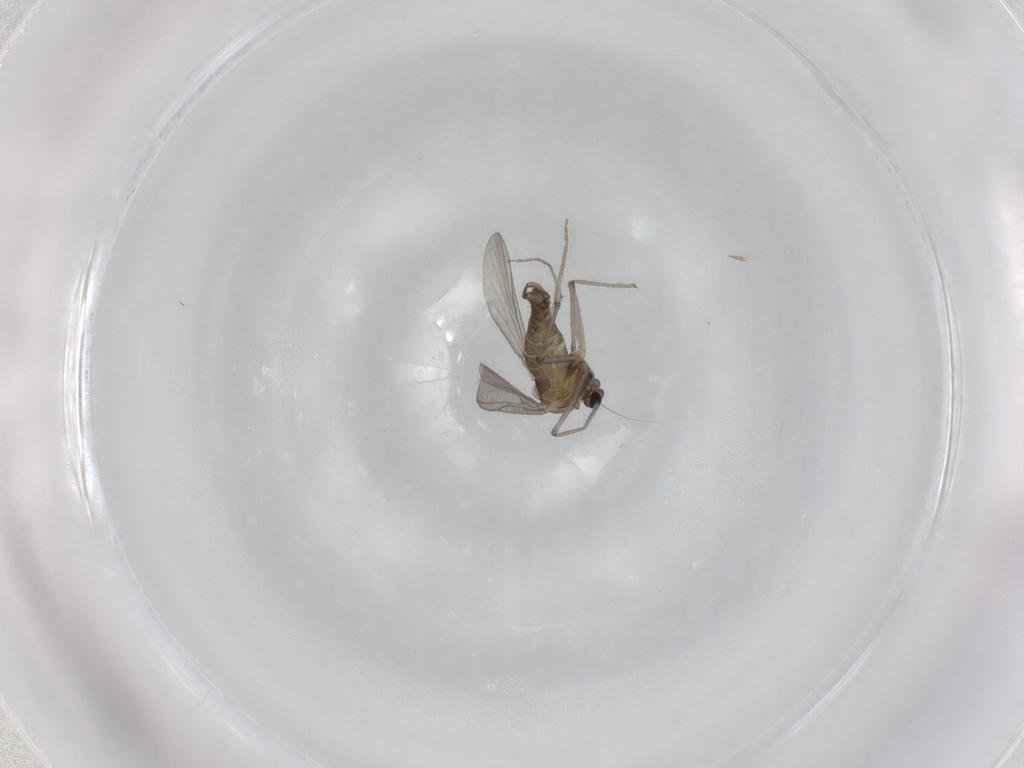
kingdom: Animalia
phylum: Arthropoda
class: Insecta
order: Diptera
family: Chironomidae
